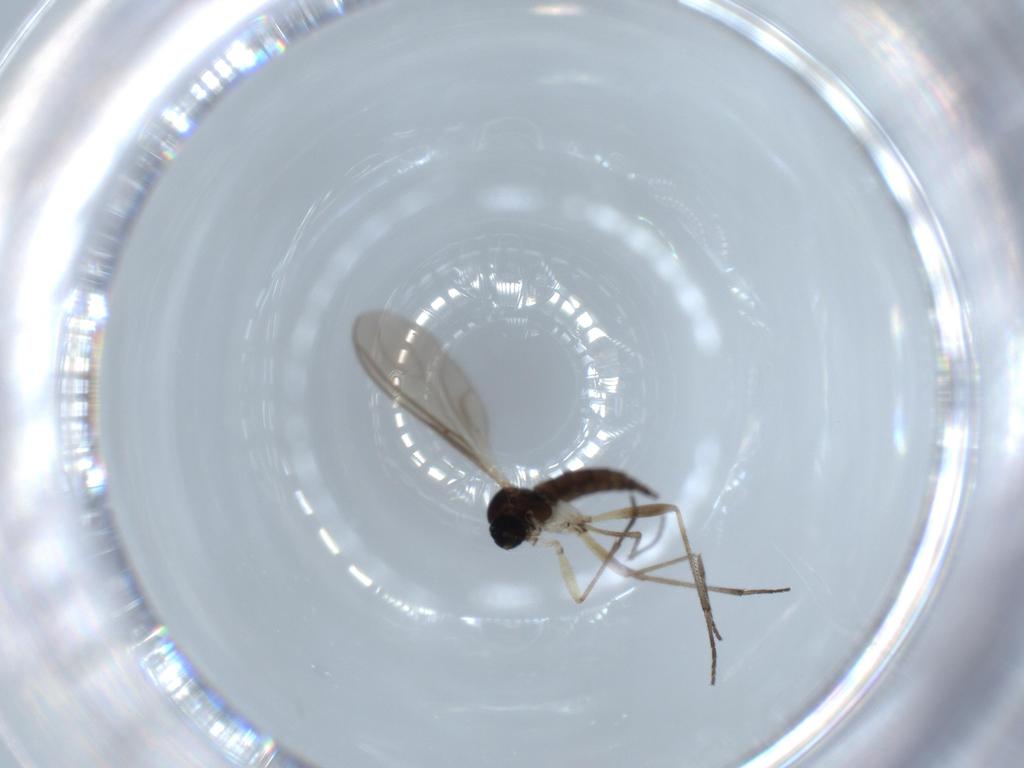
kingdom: Animalia
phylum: Arthropoda
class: Insecta
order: Diptera
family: Sciaridae
